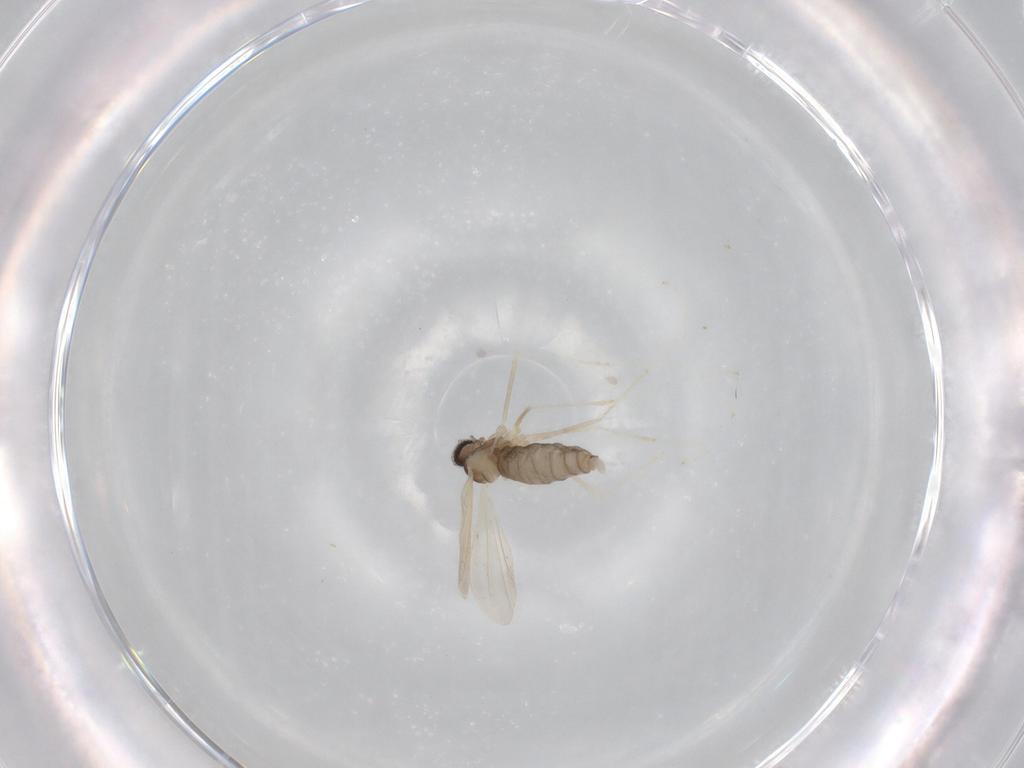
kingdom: Animalia
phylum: Arthropoda
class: Insecta
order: Diptera
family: Cecidomyiidae
